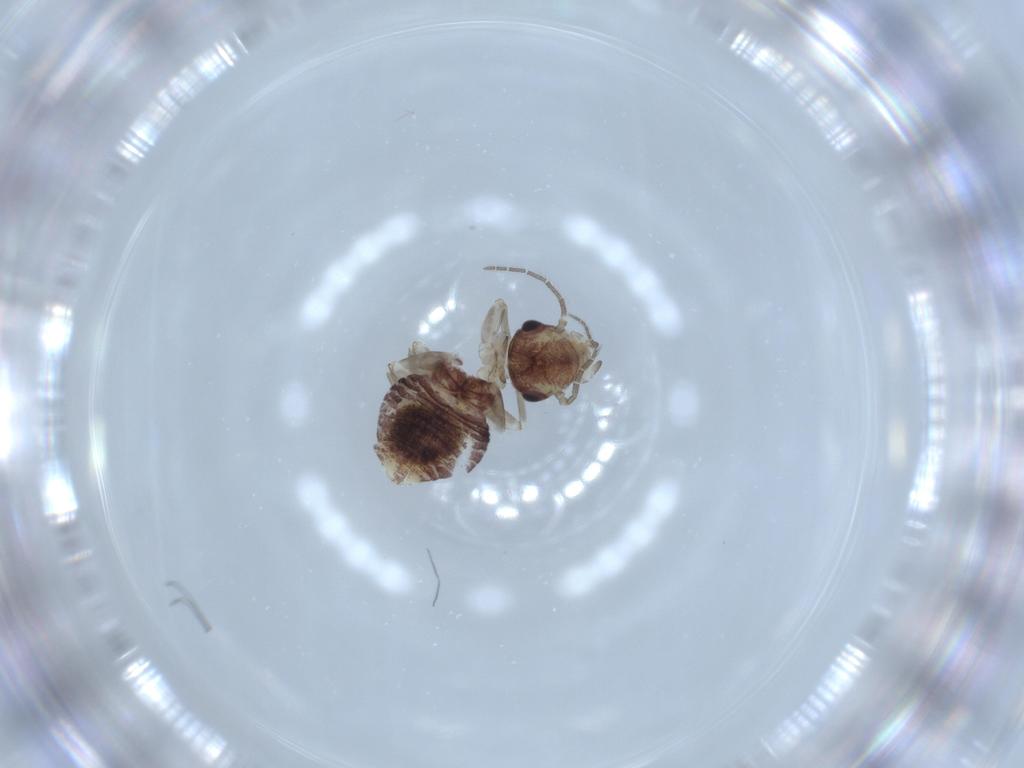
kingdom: Animalia
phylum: Arthropoda
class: Insecta
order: Psocodea
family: Myopsocidae
